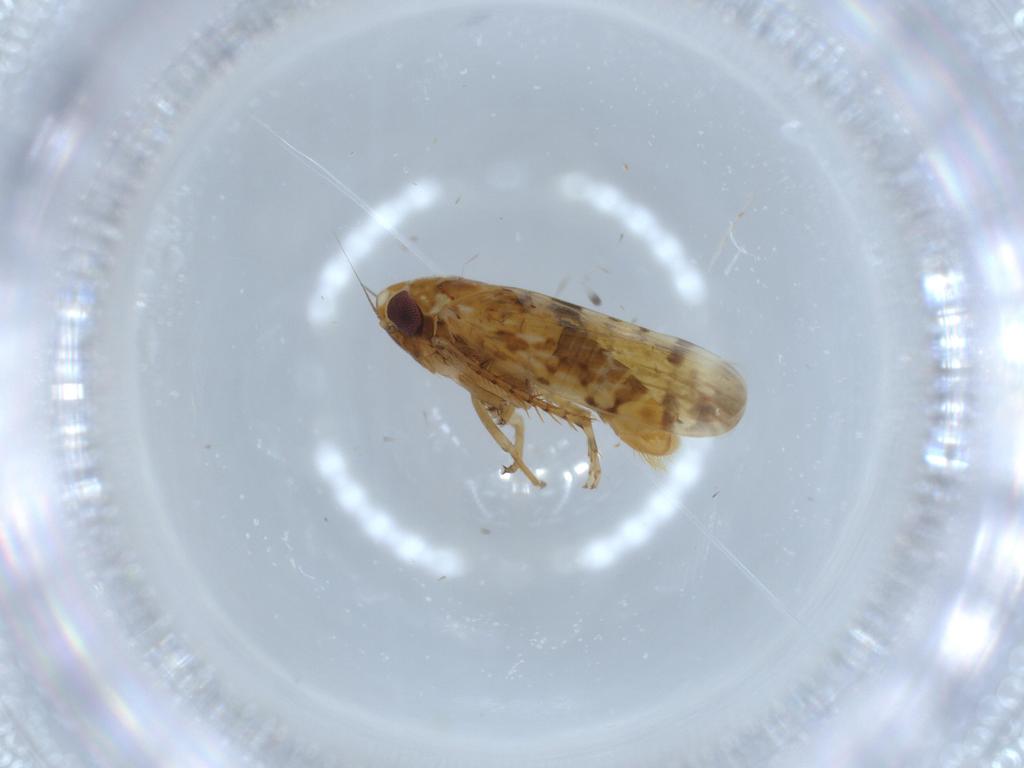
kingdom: Animalia
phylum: Arthropoda
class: Insecta
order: Hemiptera
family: Cicadellidae
